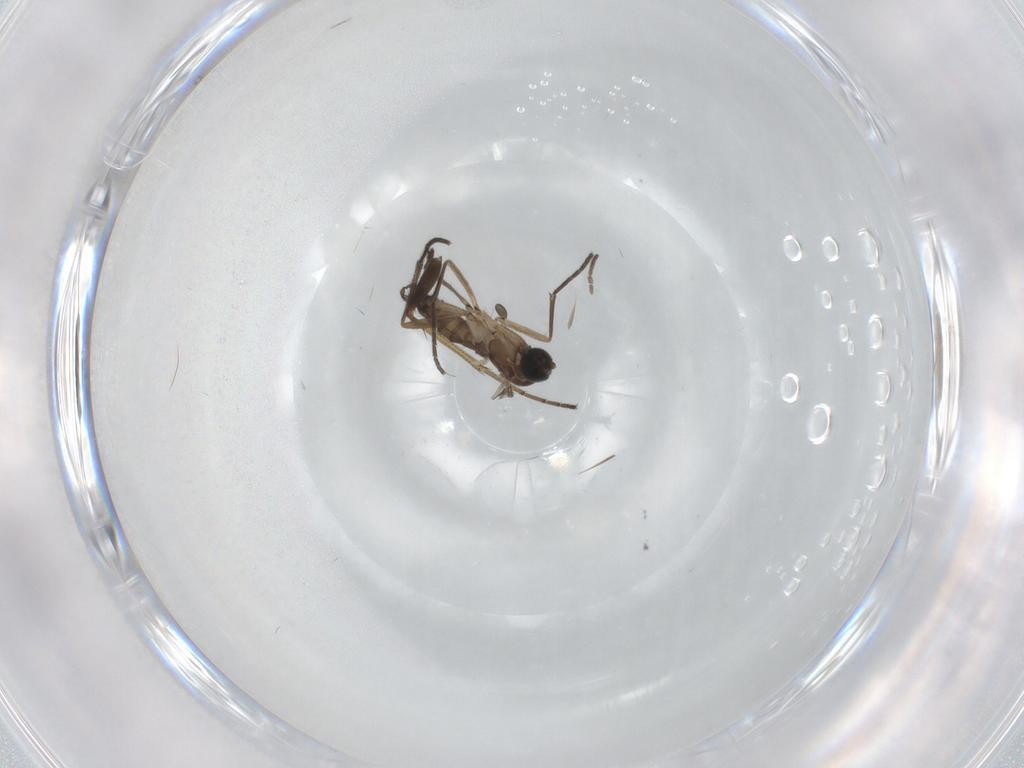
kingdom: Animalia
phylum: Arthropoda
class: Insecta
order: Diptera
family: Sciaridae
